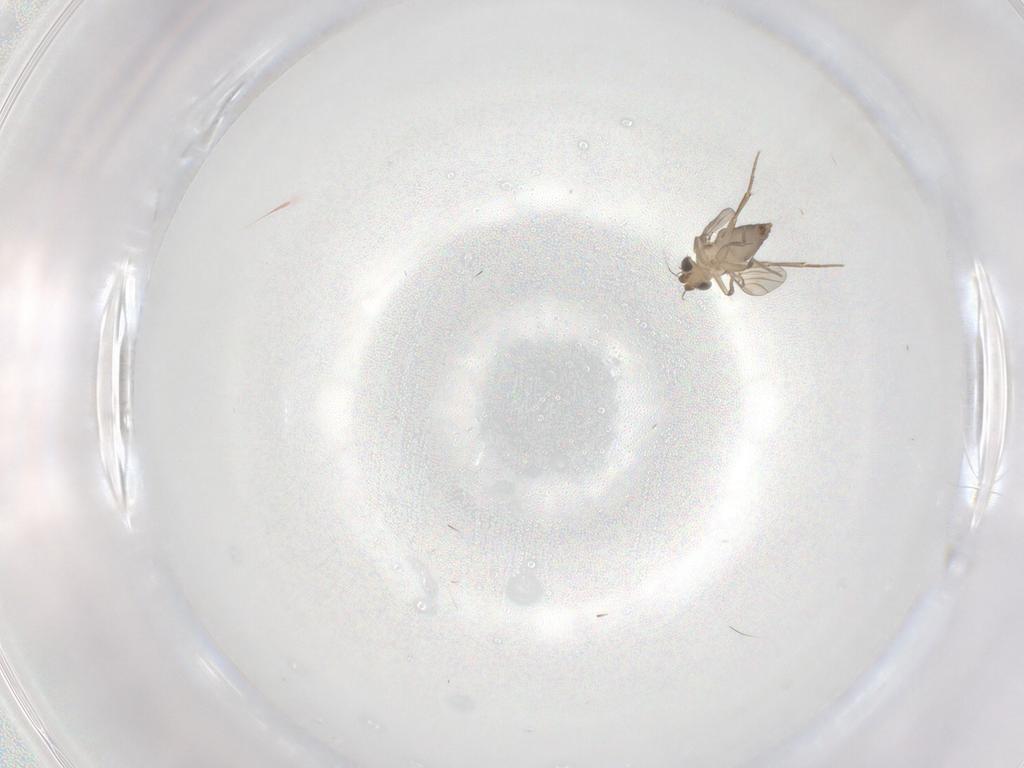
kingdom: Animalia
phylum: Arthropoda
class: Insecta
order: Diptera
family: Phoridae
